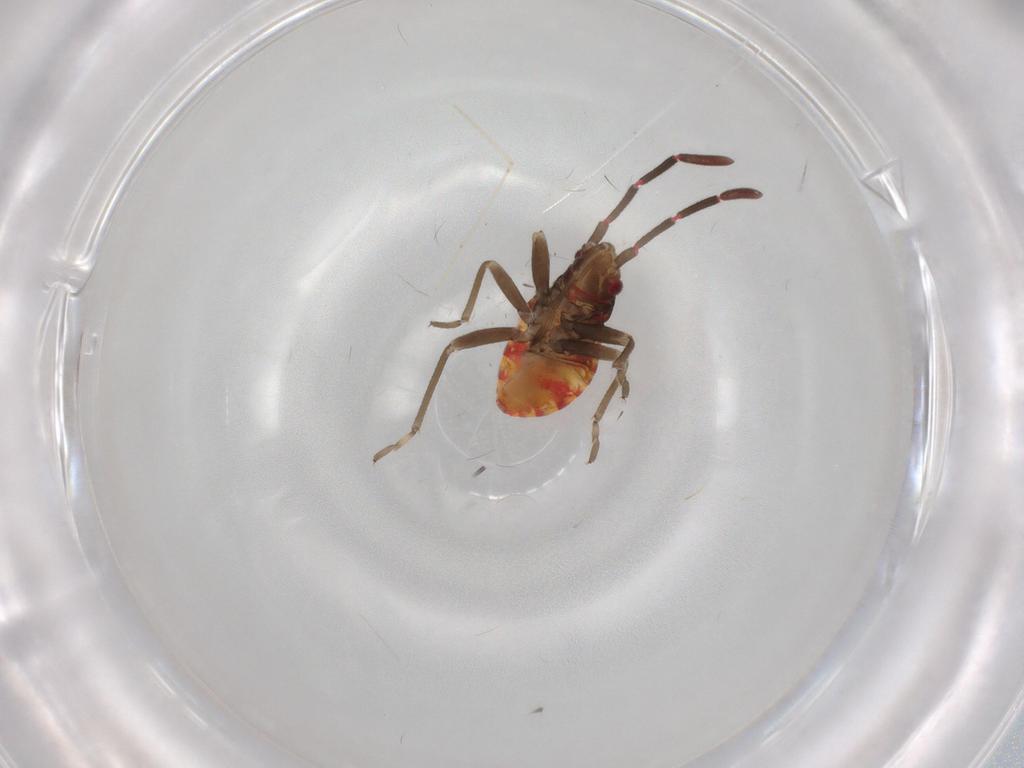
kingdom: Animalia
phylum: Arthropoda
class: Insecta
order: Hemiptera
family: Rhyparochromidae
